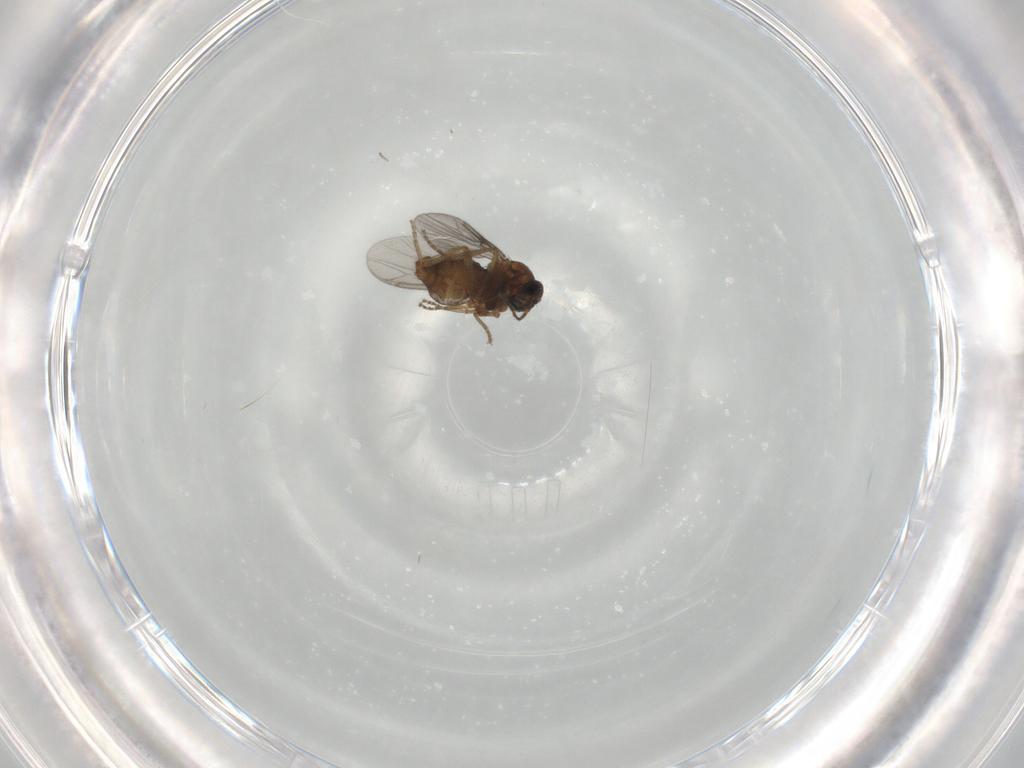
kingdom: Animalia
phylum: Arthropoda
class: Insecta
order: Diptera
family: Ceratopogonidae
